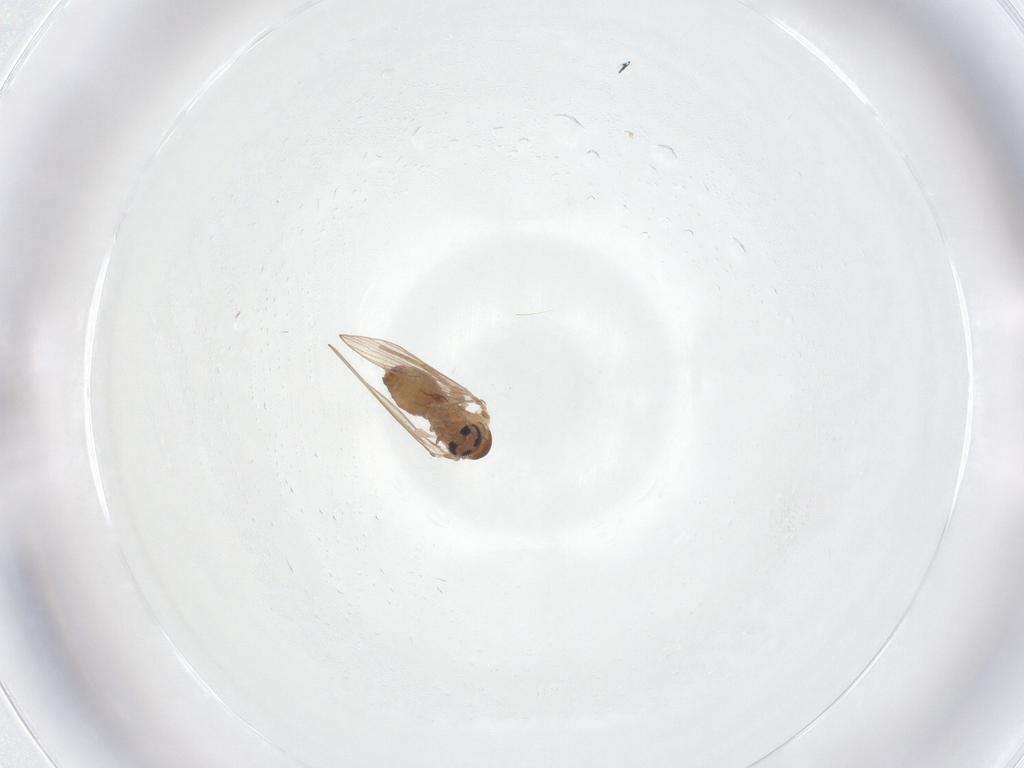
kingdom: Animalia
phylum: Arthropoda
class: Insecta
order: Diptera
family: Psychodidae
